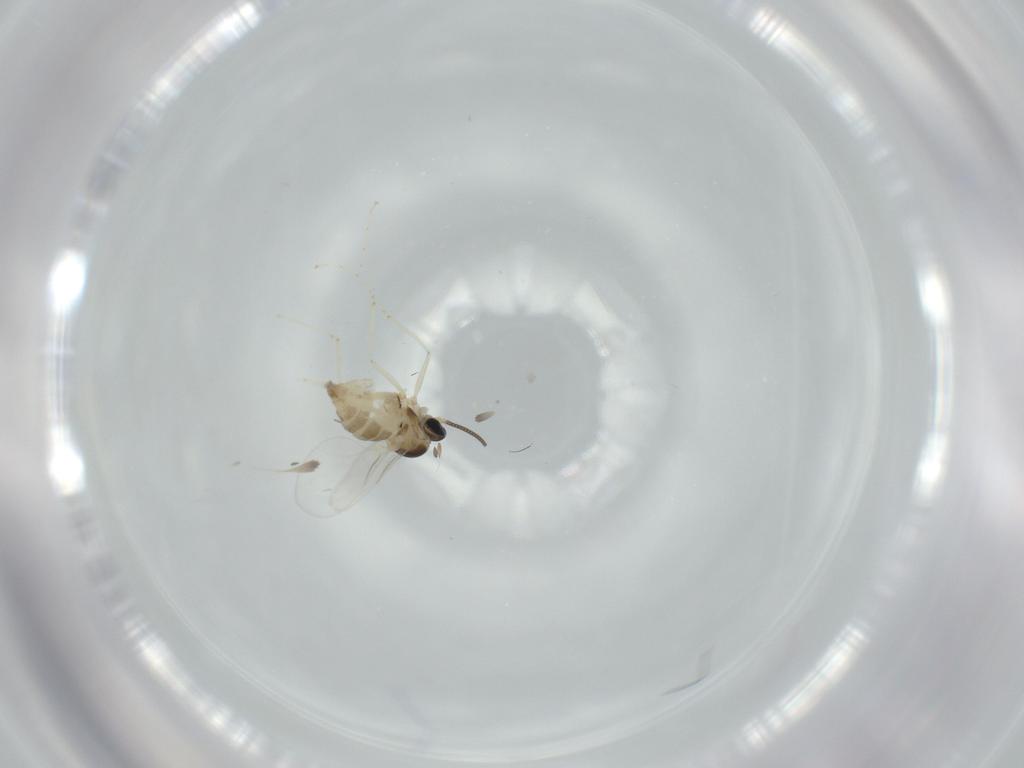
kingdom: Animalia
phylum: Arthropoda
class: Insecta
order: Diptera
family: Cecidomyiidae
